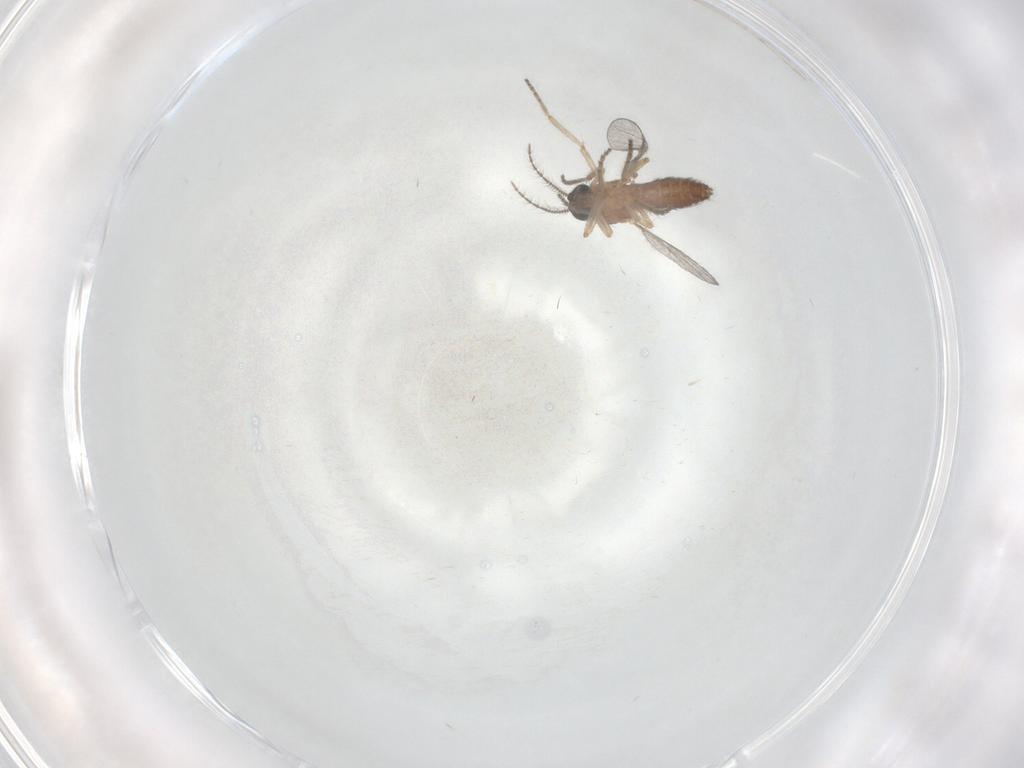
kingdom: Animalia
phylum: Arthropoda
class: Insecta
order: Diptera
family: Ceratopogonidae
